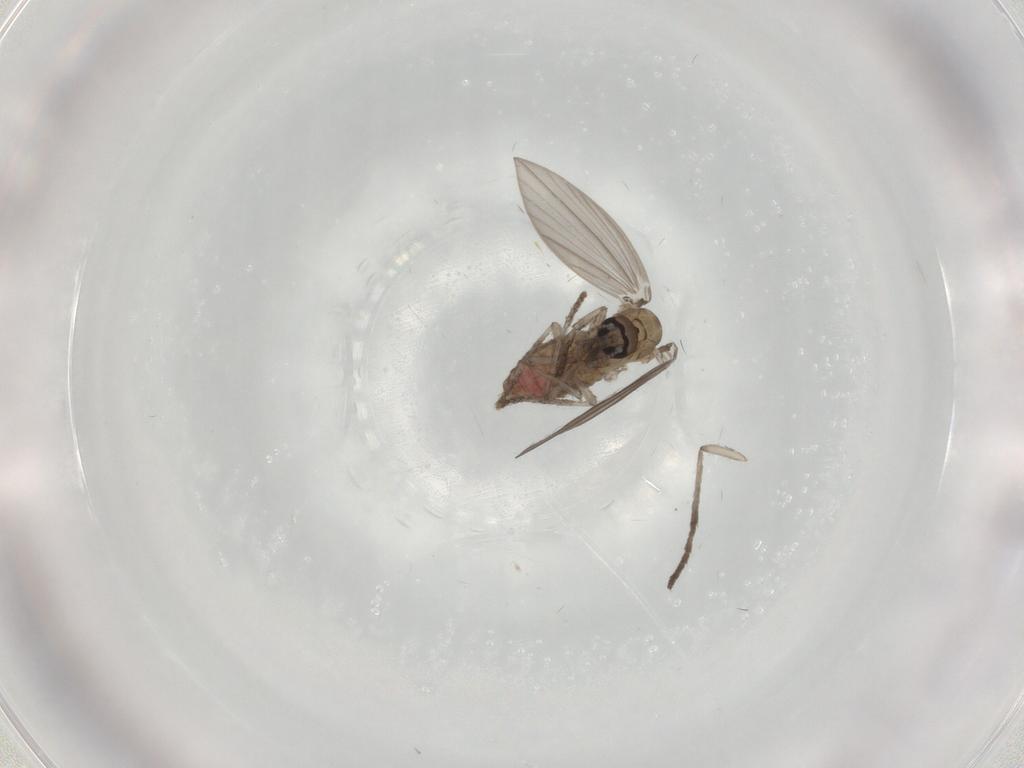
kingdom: Animalia
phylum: Arthropoda
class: Insecta
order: Diptera
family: Psychodidae
